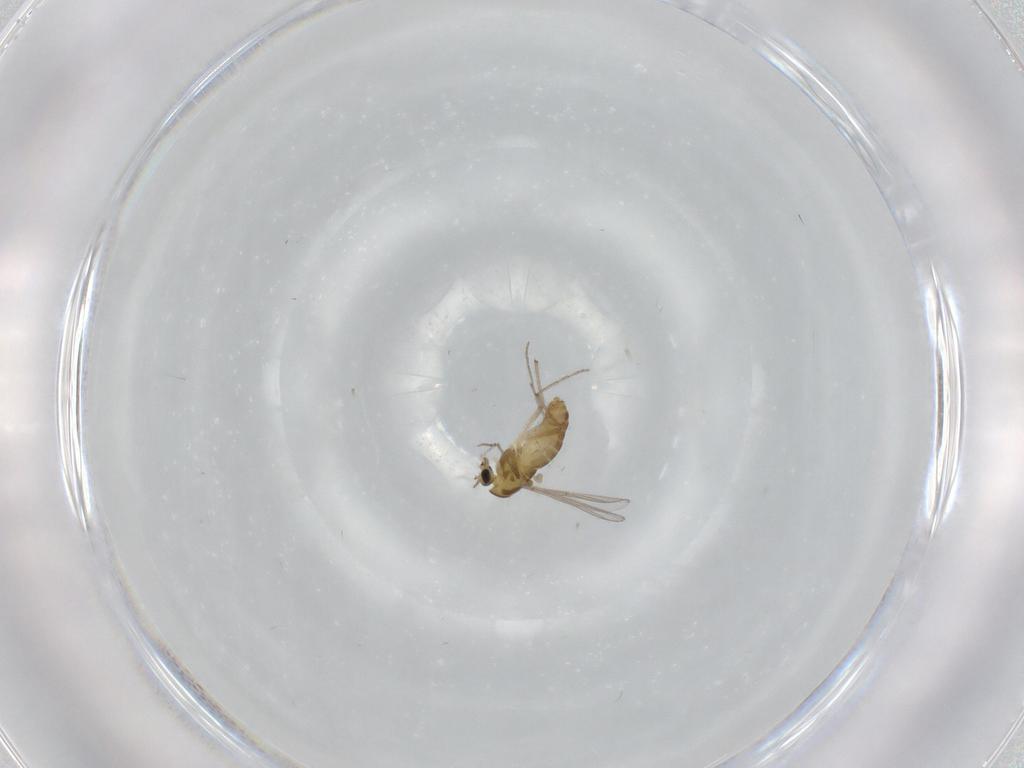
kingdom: Animalia
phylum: Arthropoda
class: Insecta
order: Diptera
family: Chironomidae
